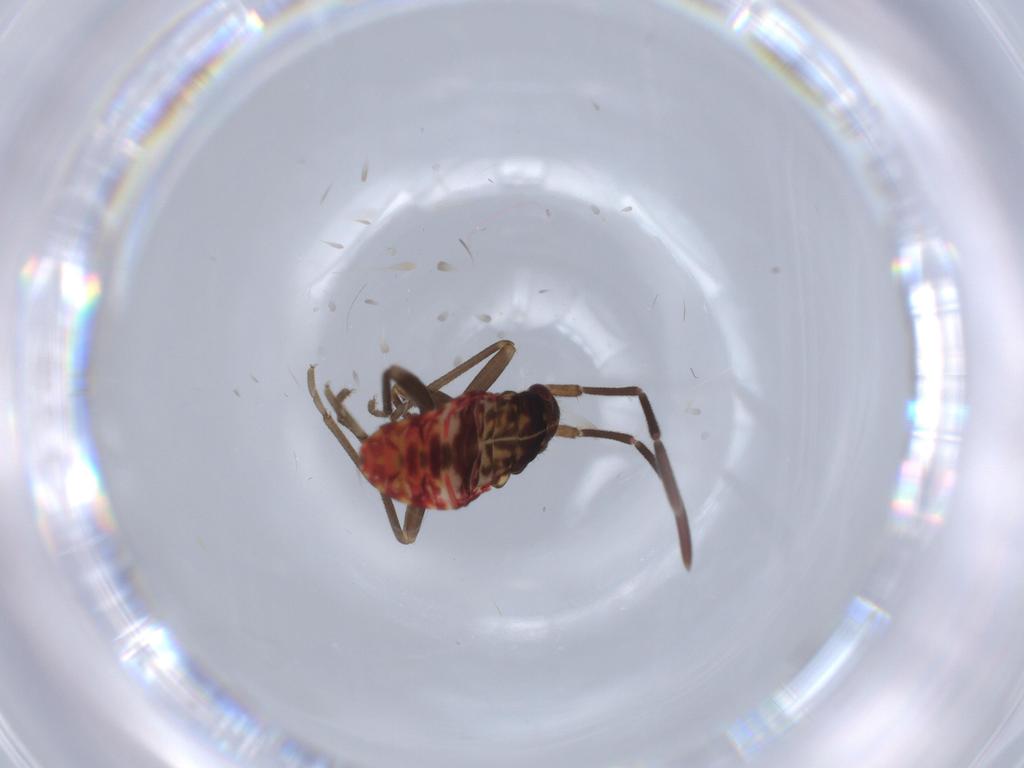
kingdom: Animalia
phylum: Arthropoda
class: Insecta
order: Hemiptera
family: Rhyparochromidae
